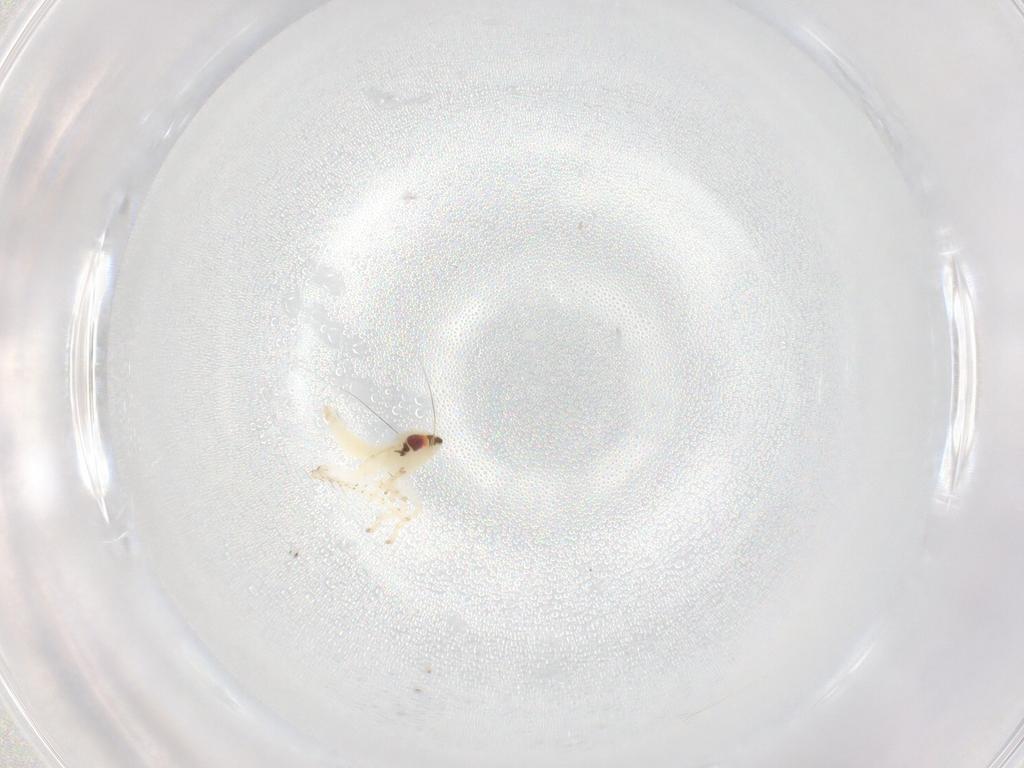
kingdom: Animalia
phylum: Arthropoda
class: Insecta
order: Hemiptera
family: Cicadellidae
